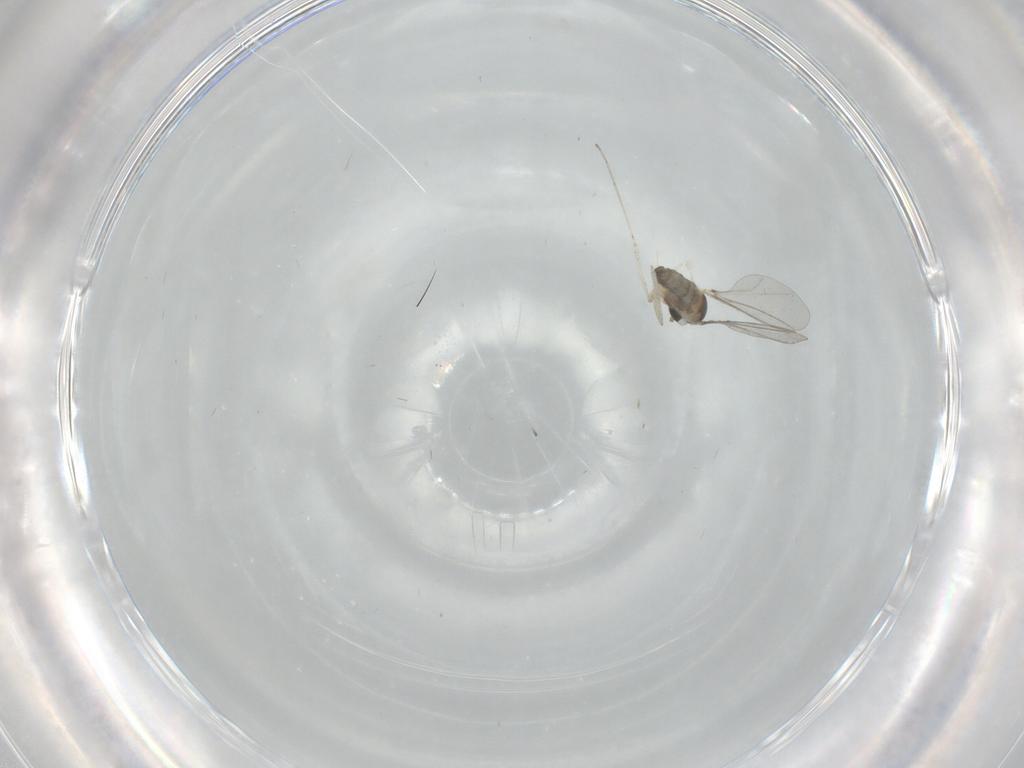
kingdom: Animalia
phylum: Arthropoda
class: Insecta
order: Diptera
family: Cecidomyiidae
